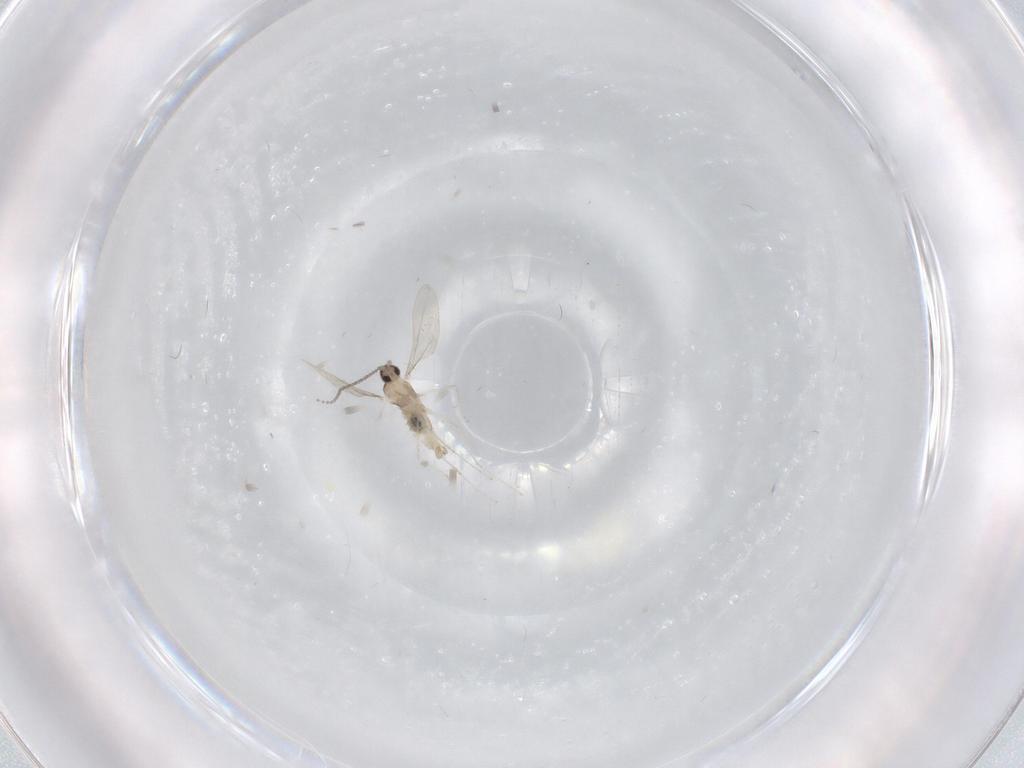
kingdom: Animalia
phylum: Arthropoda
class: Insecta
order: Diptera
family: Cecidomyiidae
